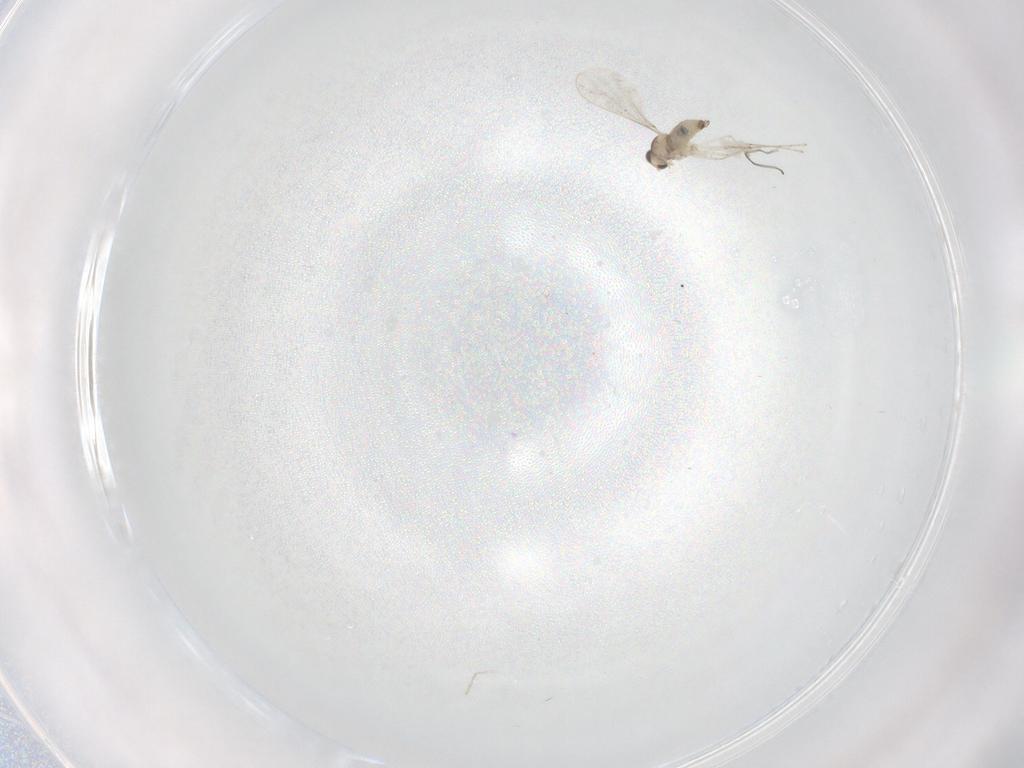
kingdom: Animalia
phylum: Arthropoda
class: Insecta
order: Diptera
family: Cecidomyiidae
